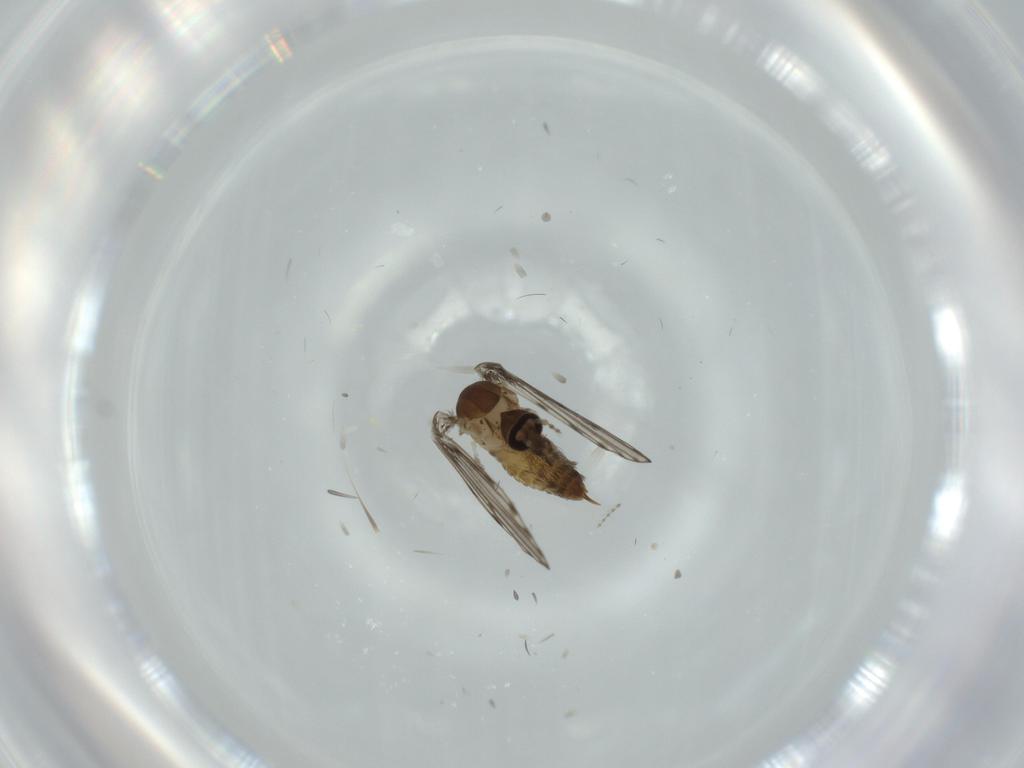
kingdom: Animalia
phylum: Arthropoda
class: Insecta
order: Diptera
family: Psychodidae
